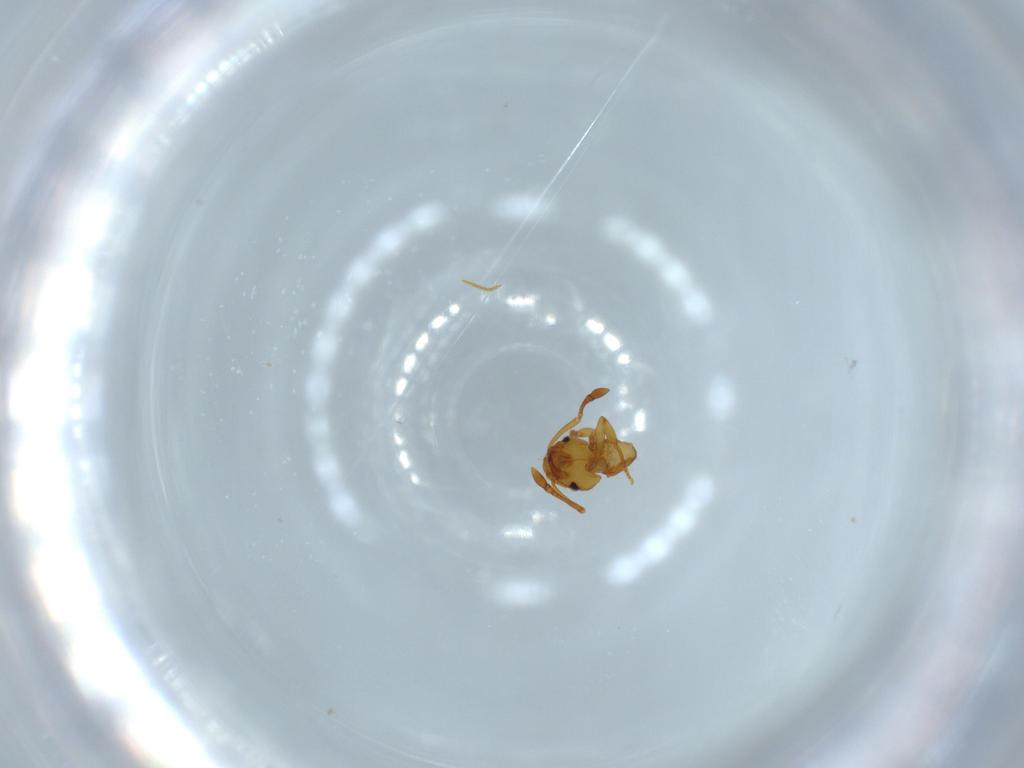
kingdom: Animalia
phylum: Arthropoda
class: Insecta
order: Hymenoptera
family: Formicidae
